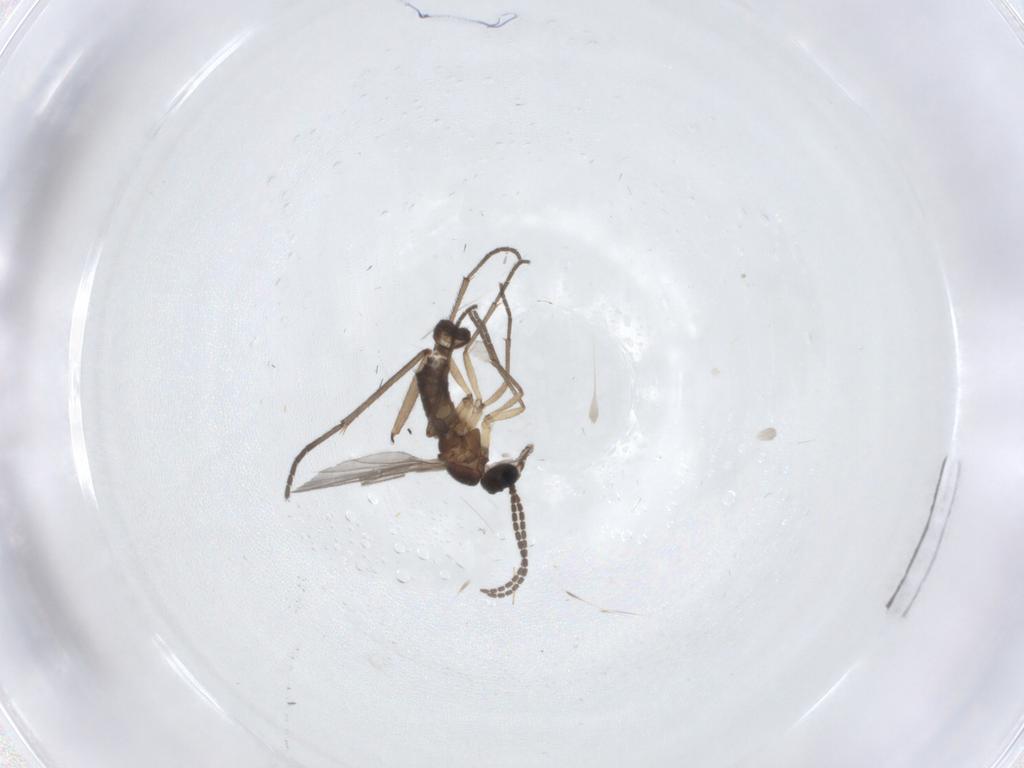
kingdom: Animalia
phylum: Arthropoda
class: Insecta
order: Diptera
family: Sciaridae
